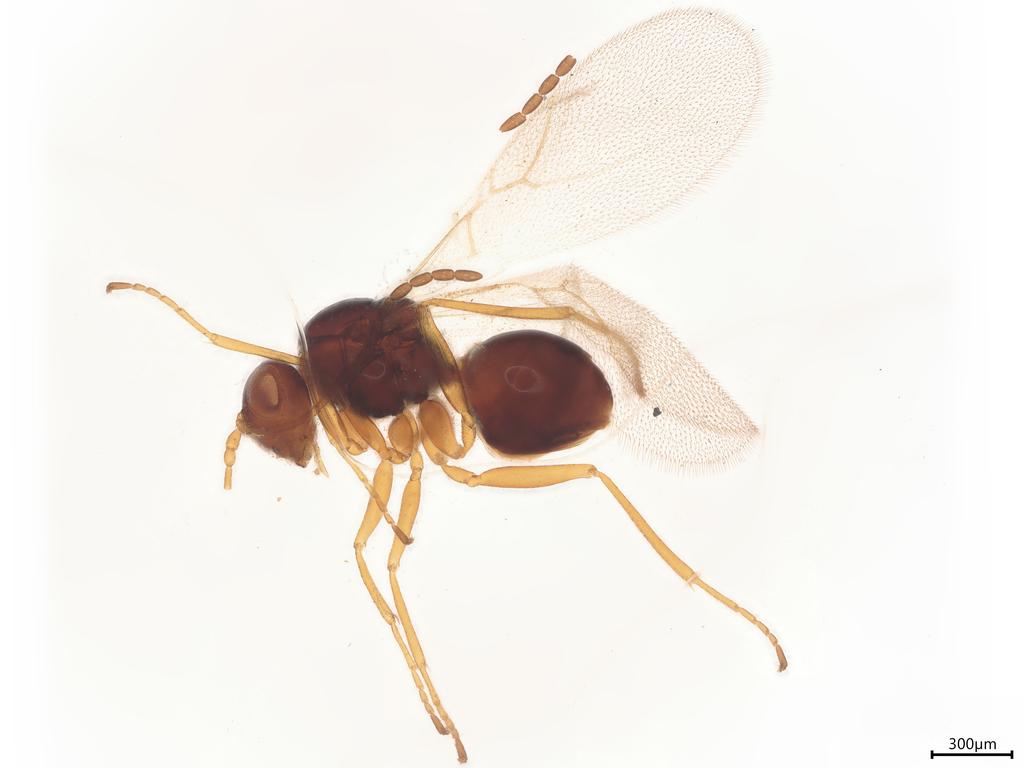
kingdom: Animalia
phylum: Arthropoda
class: Insecta
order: Hymenoptera
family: Figitidae
